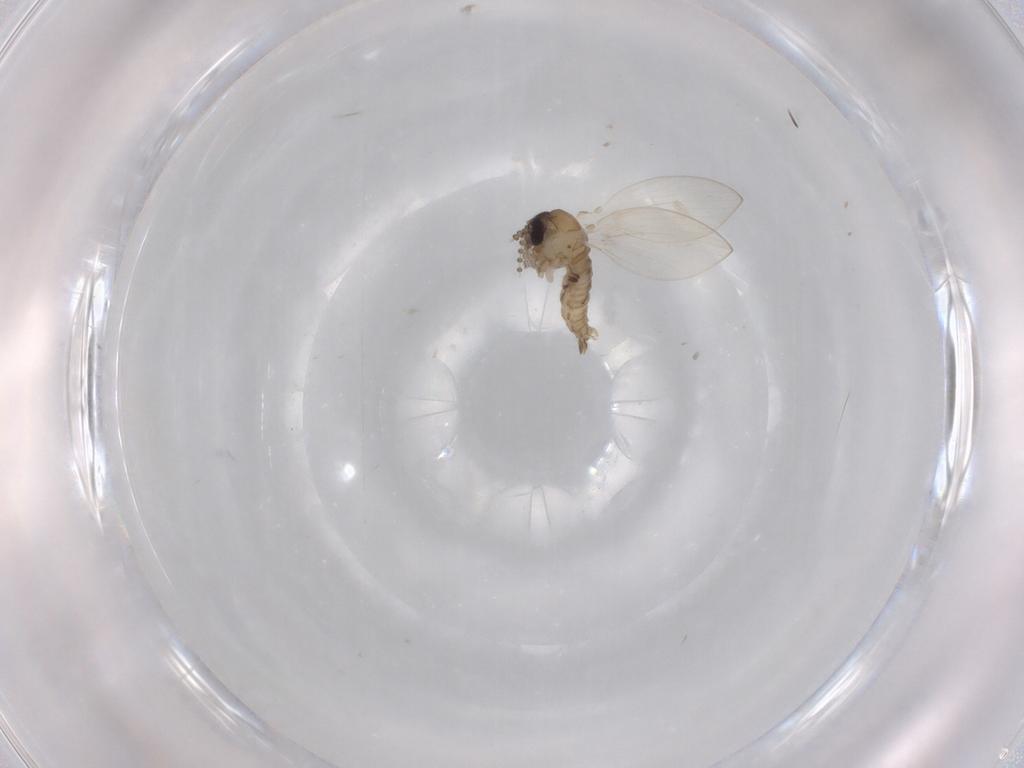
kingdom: Animalia
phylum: Arthropoda
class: Insecta
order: Diptera
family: Psychodidae
